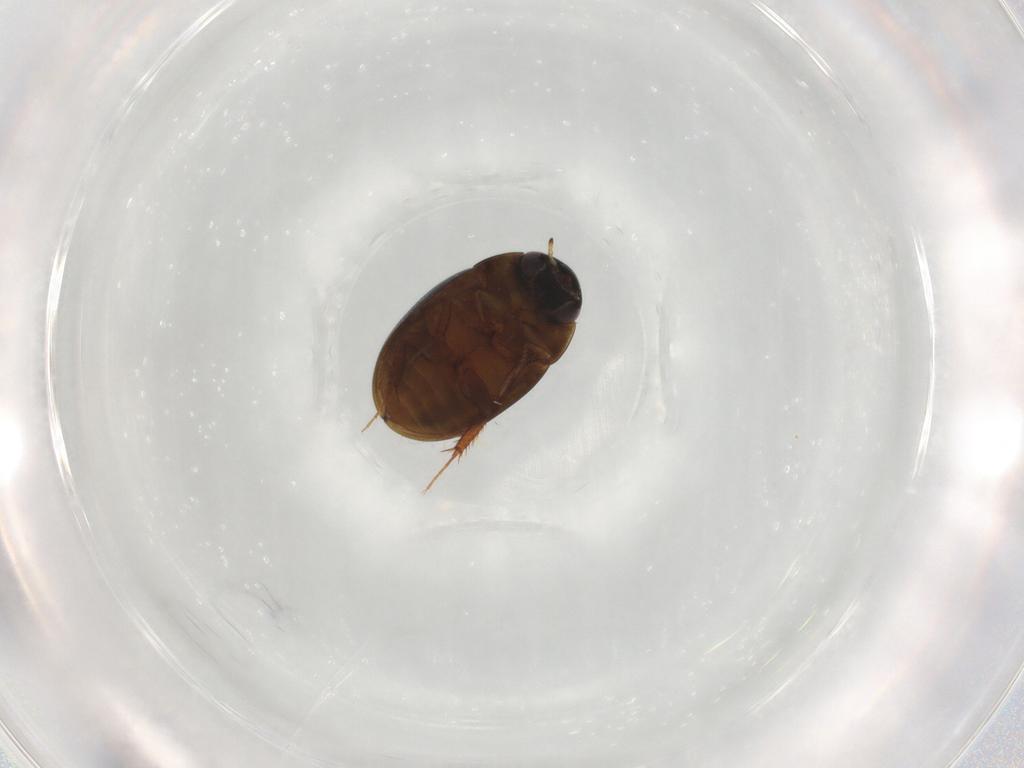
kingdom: Animalia
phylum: Arthropoda
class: Insecta
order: Coleoptera
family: Hydrophilidae
